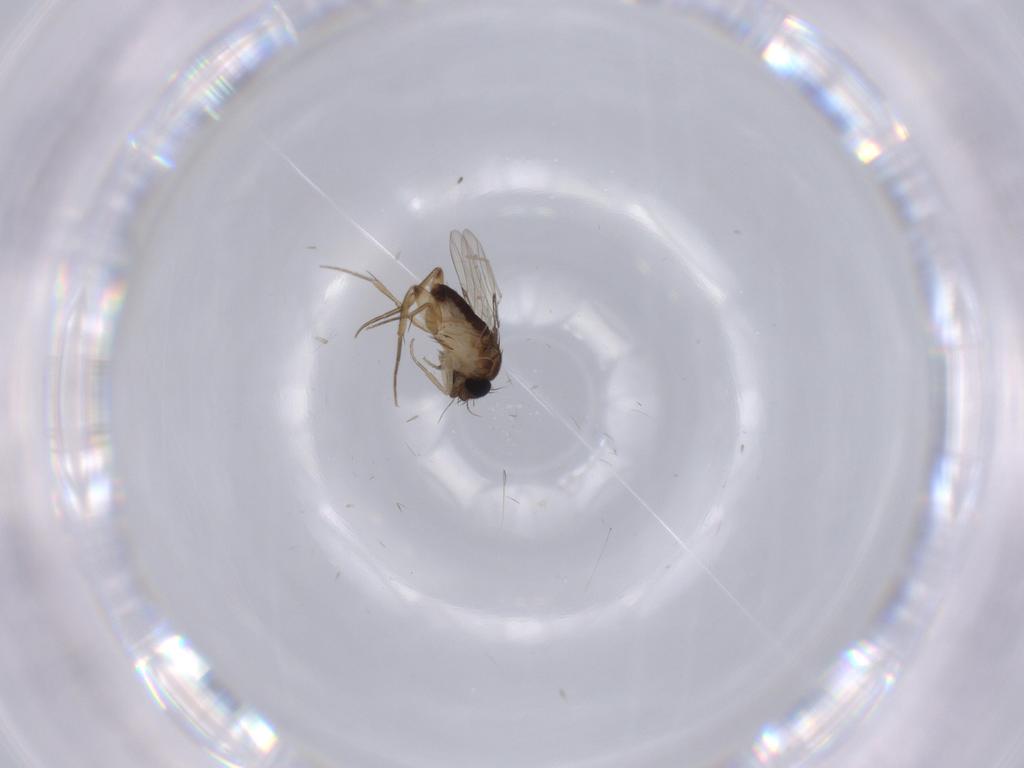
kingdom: Animalia
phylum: Arthropoda
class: Insecta
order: Diptera
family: Phoridae
